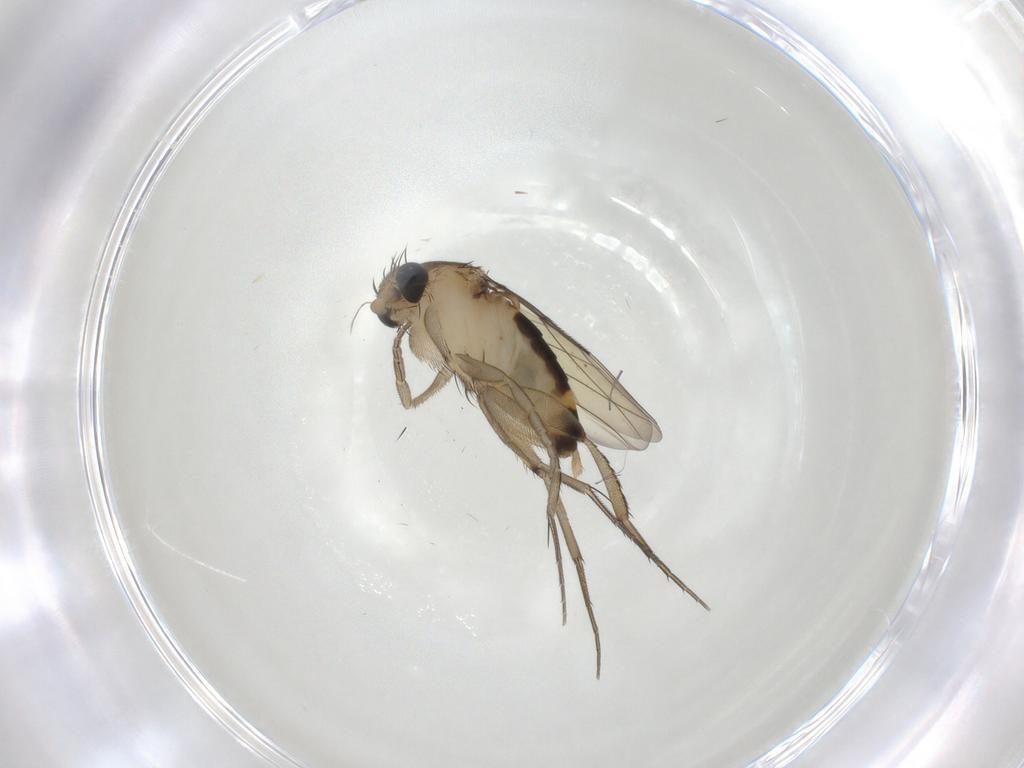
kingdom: Animalia
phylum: Arthropoda
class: Insecta
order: Diptera
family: Phoridae
